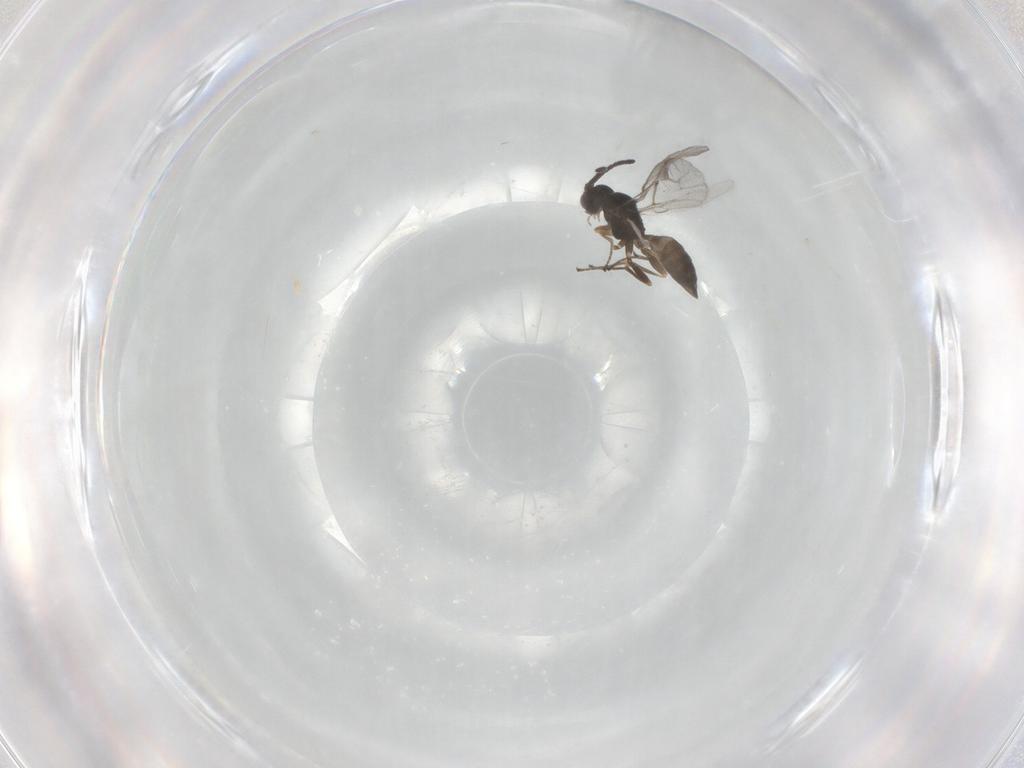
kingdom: Animalia
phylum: Arthropoda
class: Insecta
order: Hymenoptera
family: Braconidae
